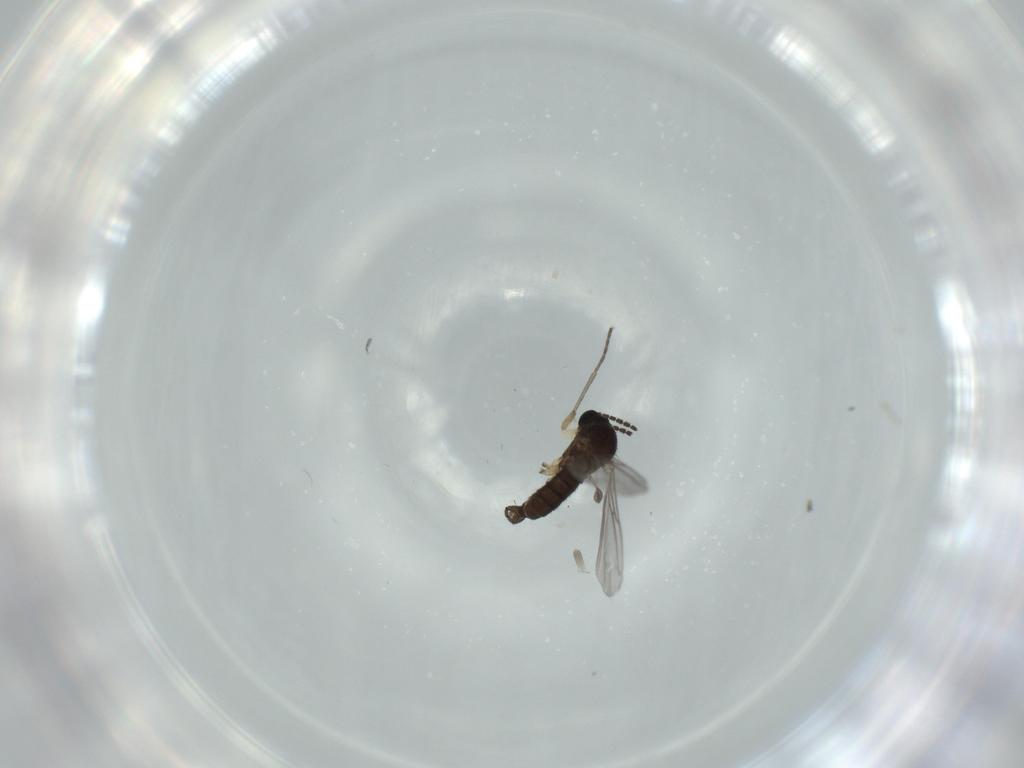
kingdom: Animalia
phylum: Arthropoda
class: Insecta
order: Diptera
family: Sciaridae
